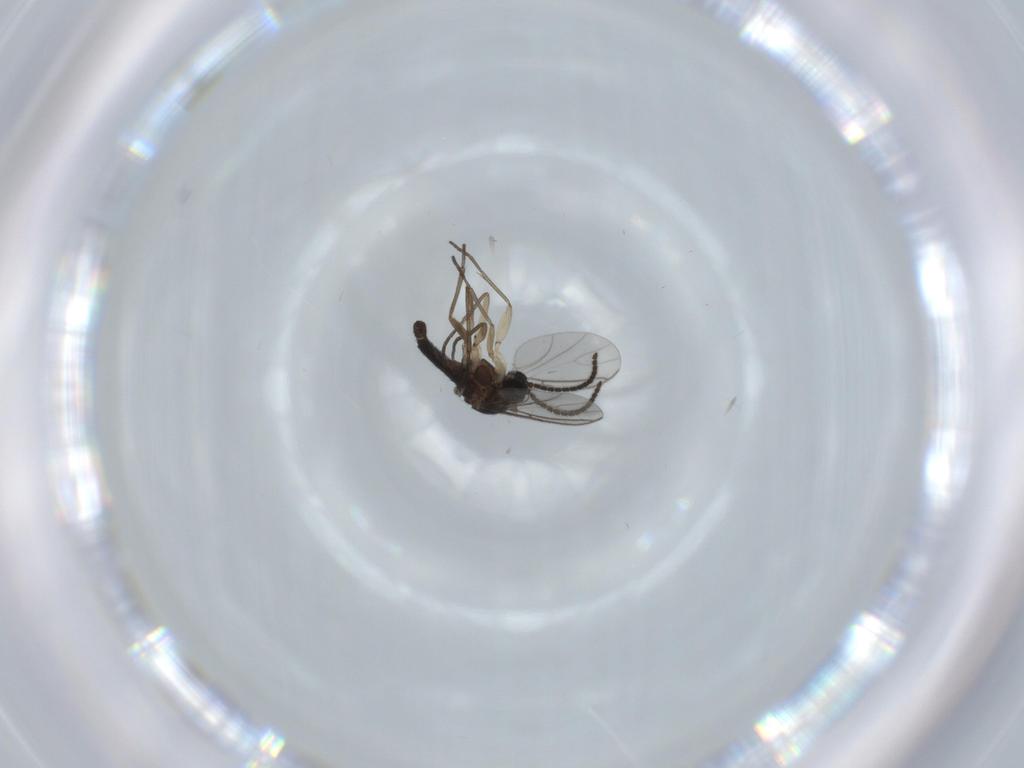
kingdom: Animalia
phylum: Arthropoda
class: Insecta
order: Diptera
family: Sciaridae
